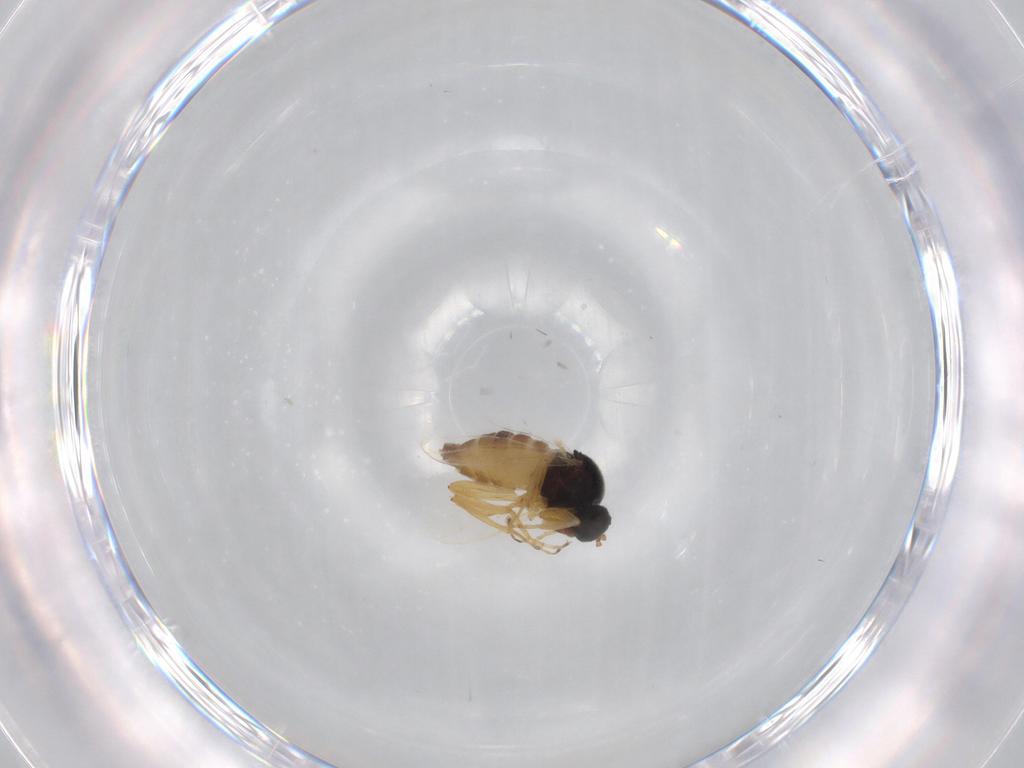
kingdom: Animalia
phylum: Arthropoda
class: Insecta
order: Diptera
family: Hybotidae
